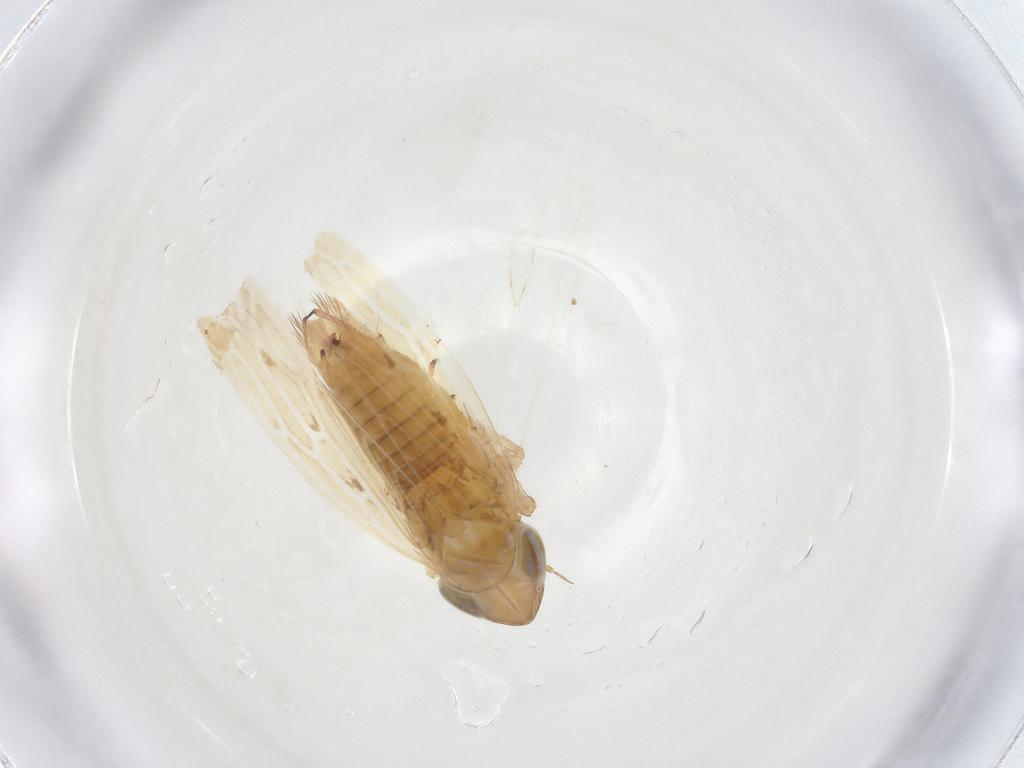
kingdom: Animalia
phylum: Arthropoda
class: Insecta
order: Hemiptera
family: Cicadellidae
